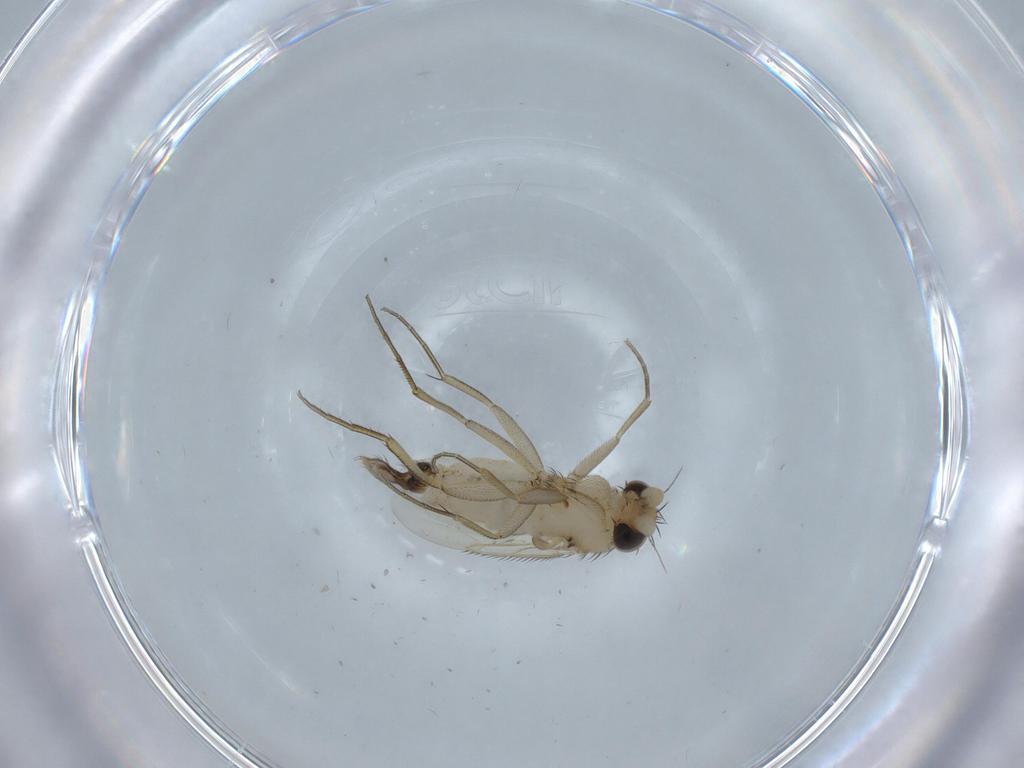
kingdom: Animalia
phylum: Arthropoda
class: Insecta
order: Diptera
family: Phoridae
